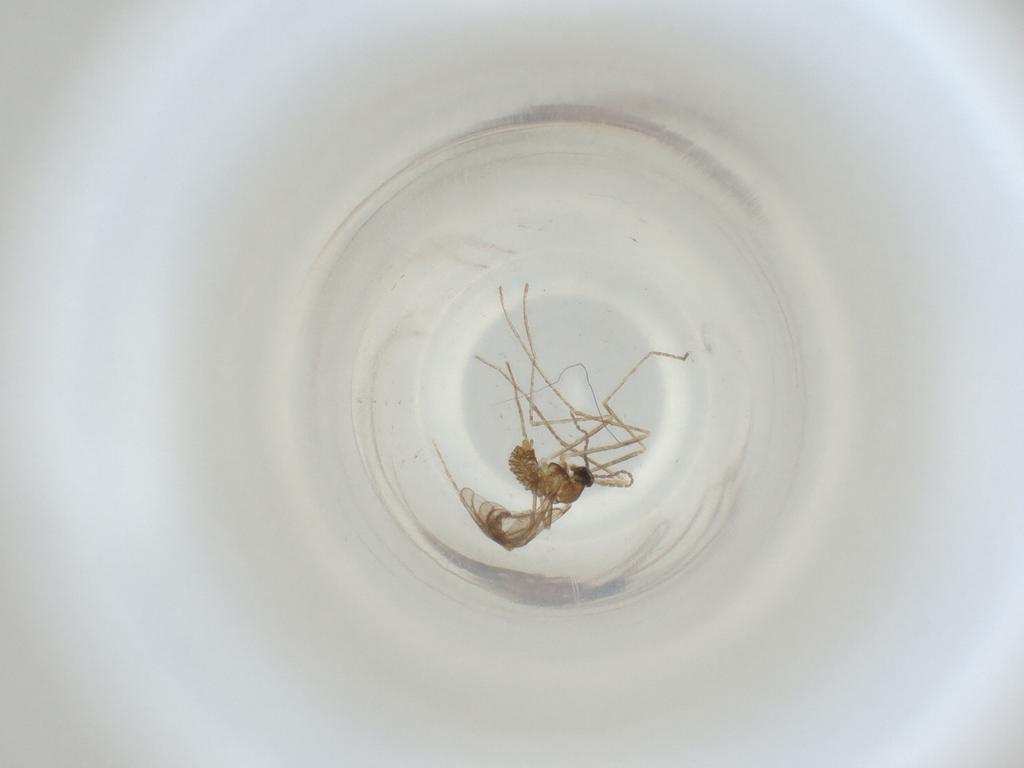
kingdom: Animalia
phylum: Arthropoda
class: Insecta
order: Diptera
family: Cecidomyiidae
